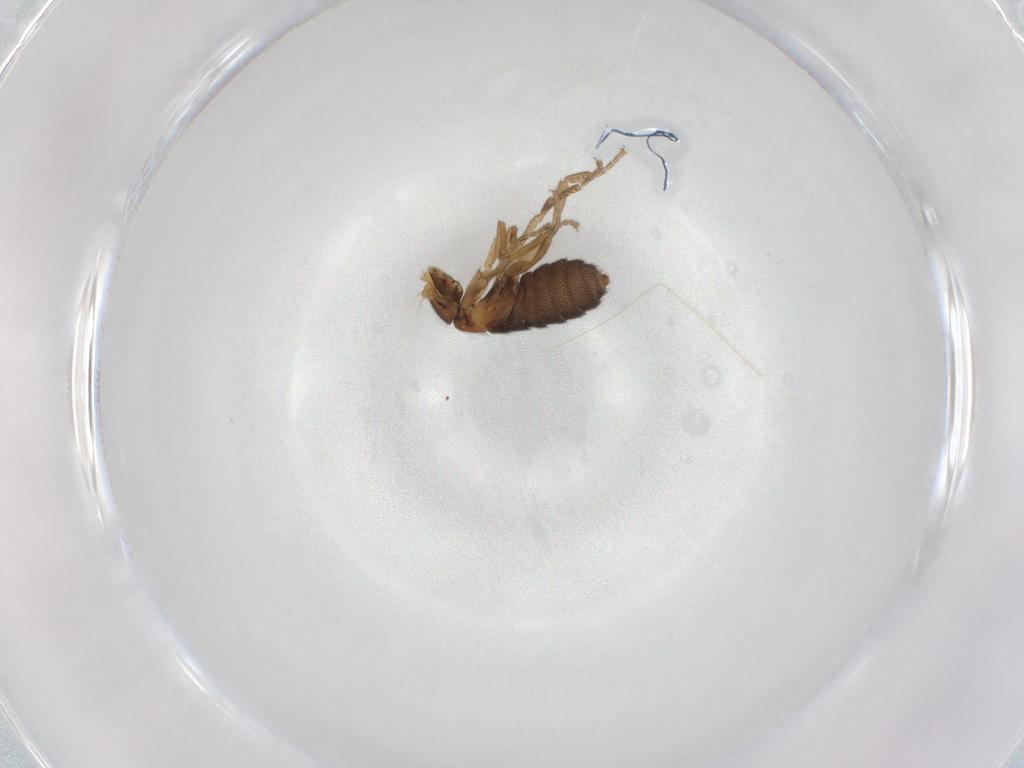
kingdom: Animalia
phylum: Arthropoda
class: Insecta
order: Diptera
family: Phoridae
